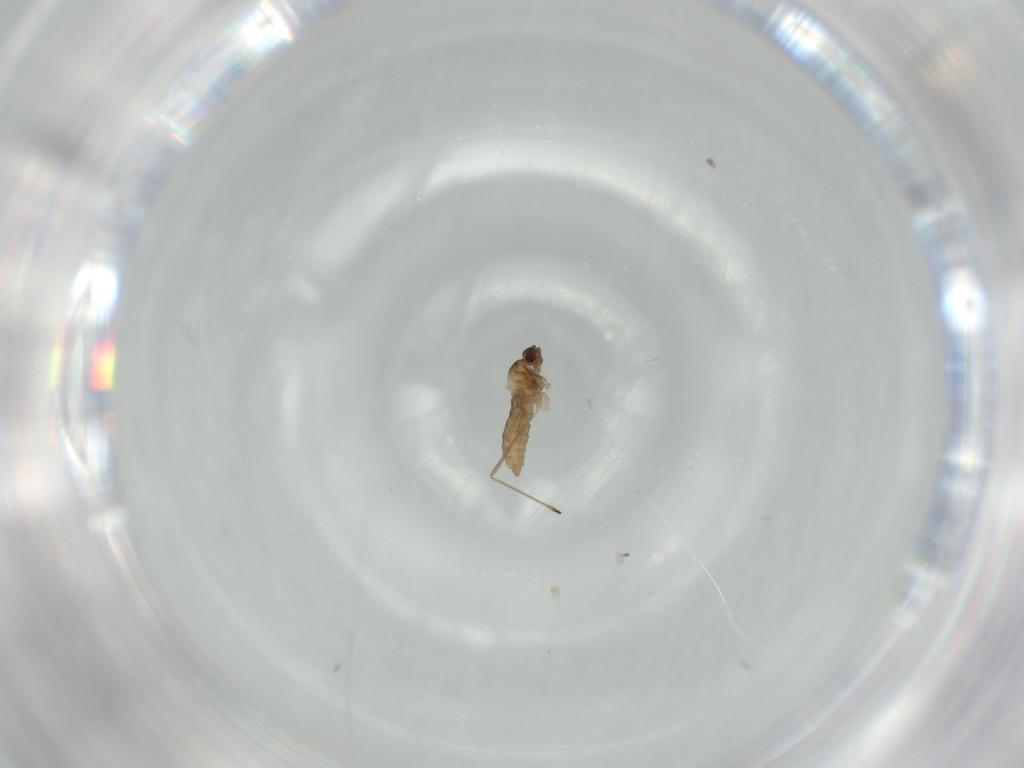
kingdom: Animalia
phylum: Arthropoda
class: Insecta
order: Diptera
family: Cecidomyiidae
